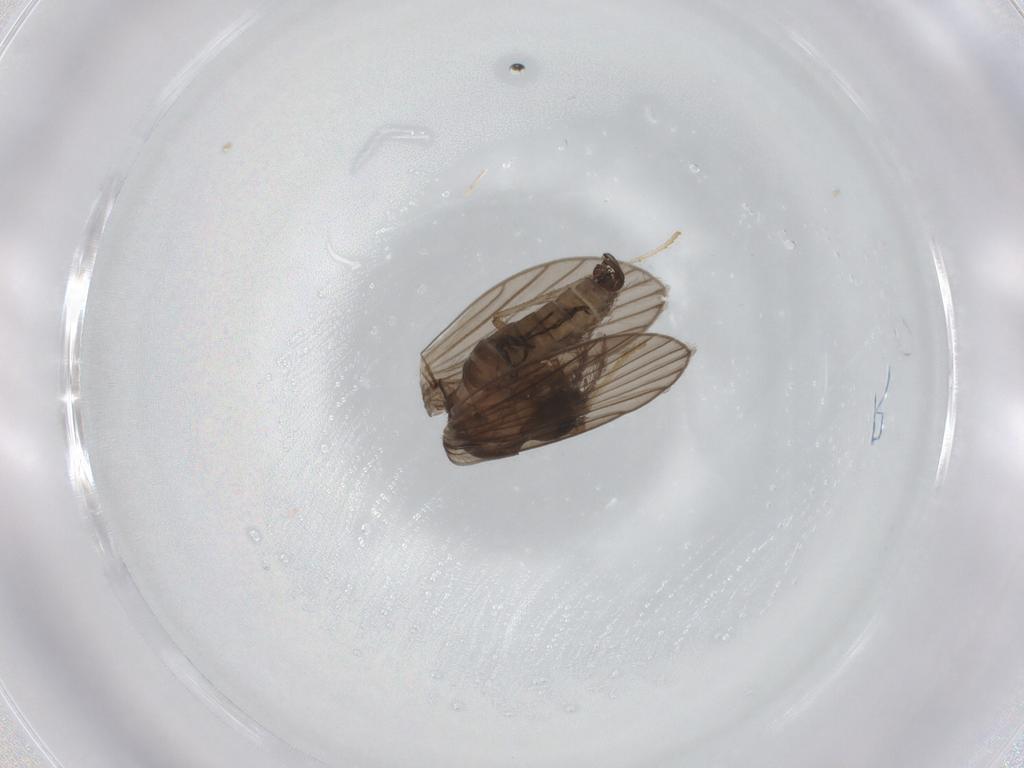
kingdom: Animalia
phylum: Arthropoda
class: Insecta
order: Diptera
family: Psychodidae
